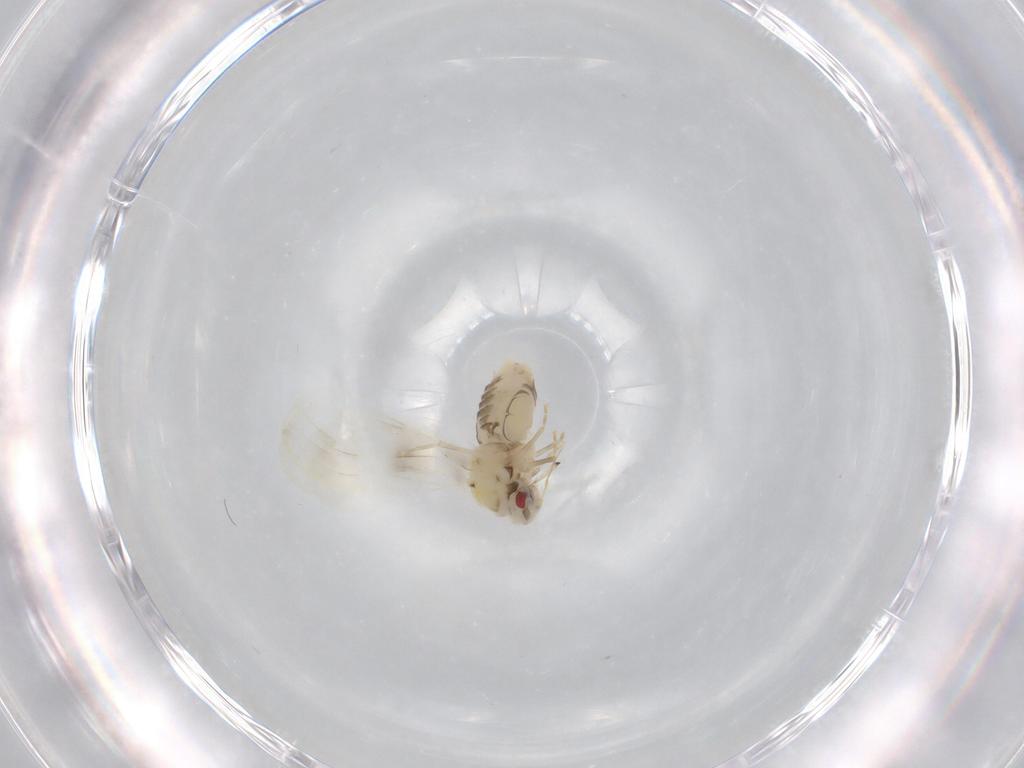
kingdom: Animalia
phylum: Arthropoda
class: Insecta
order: Hemiptera
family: Aleyrodidae
